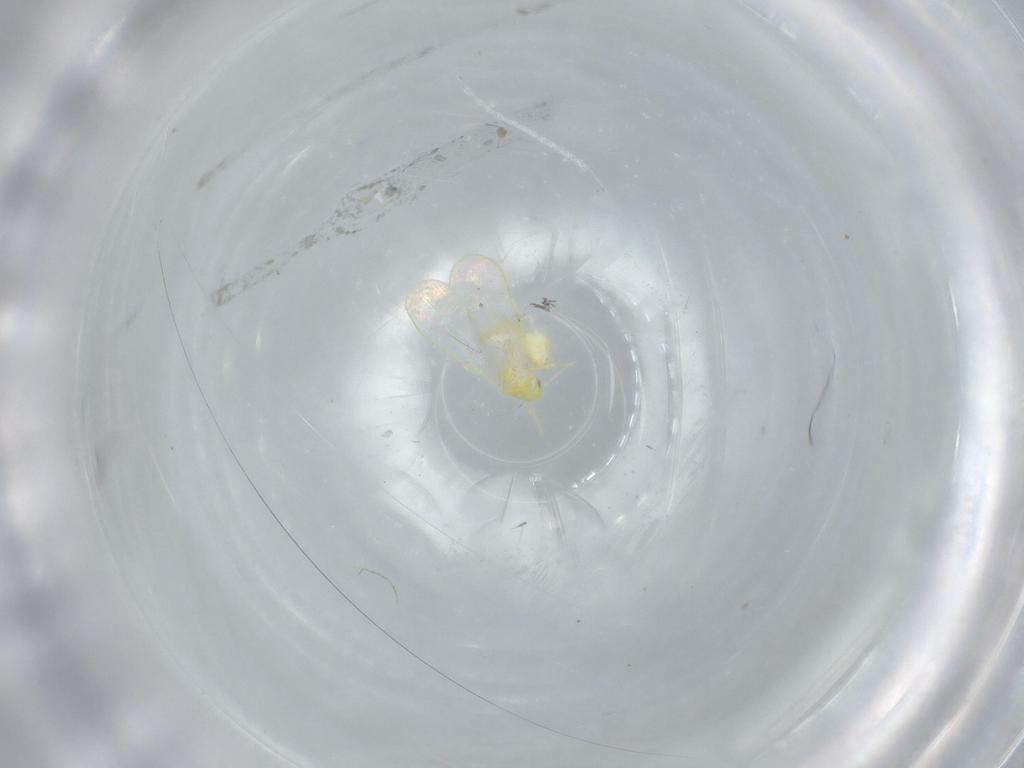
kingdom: Animalia
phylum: Arthropoda
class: Insecta
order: Hemiptera
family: Aleyrodidae
